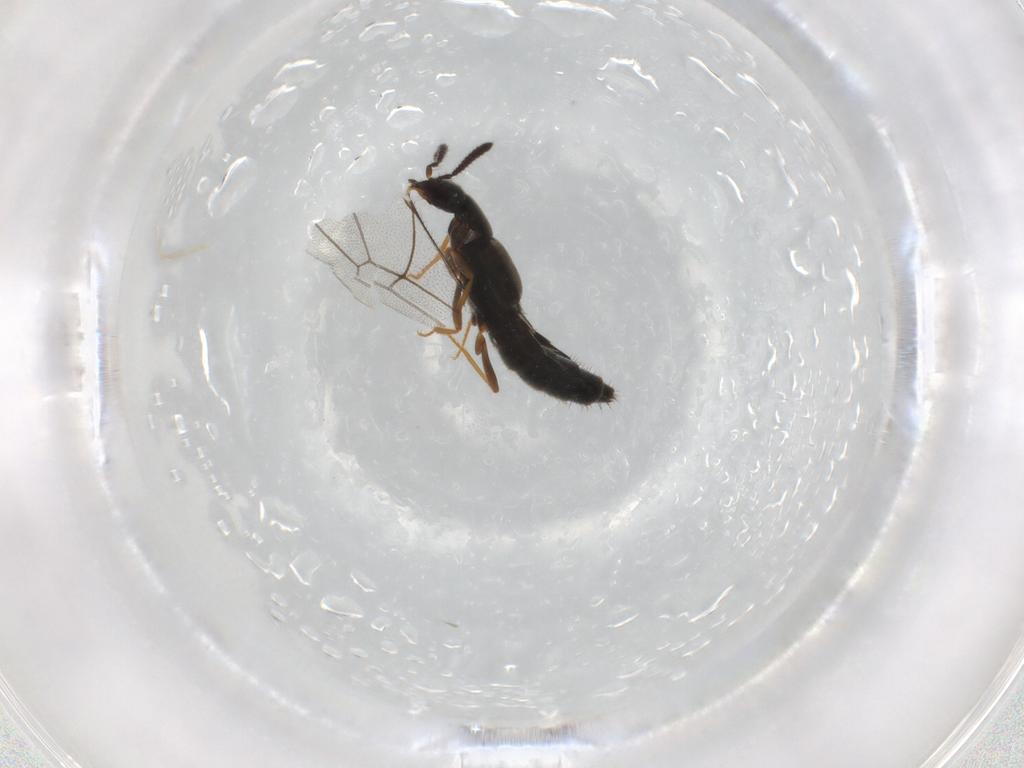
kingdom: Animalia
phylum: Arthropoda
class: Insecta
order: Coleoptera
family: Staphylinidae
